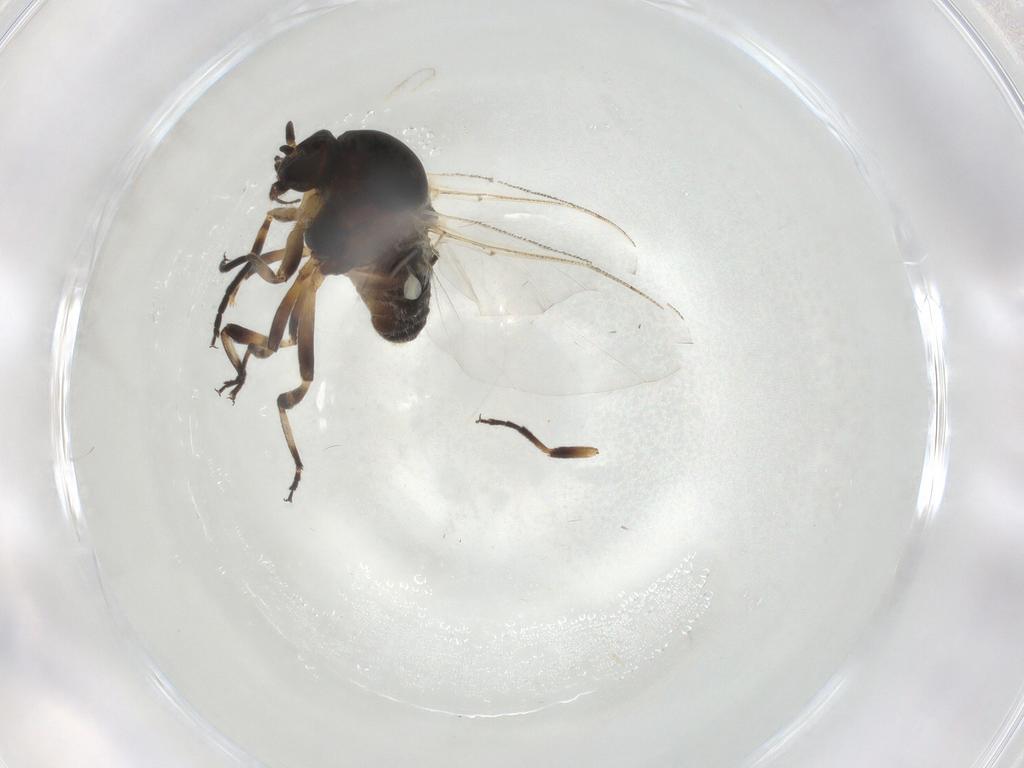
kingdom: Animalia
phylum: Arthropoda
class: Insecta
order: Diptera
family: Chironomidae
